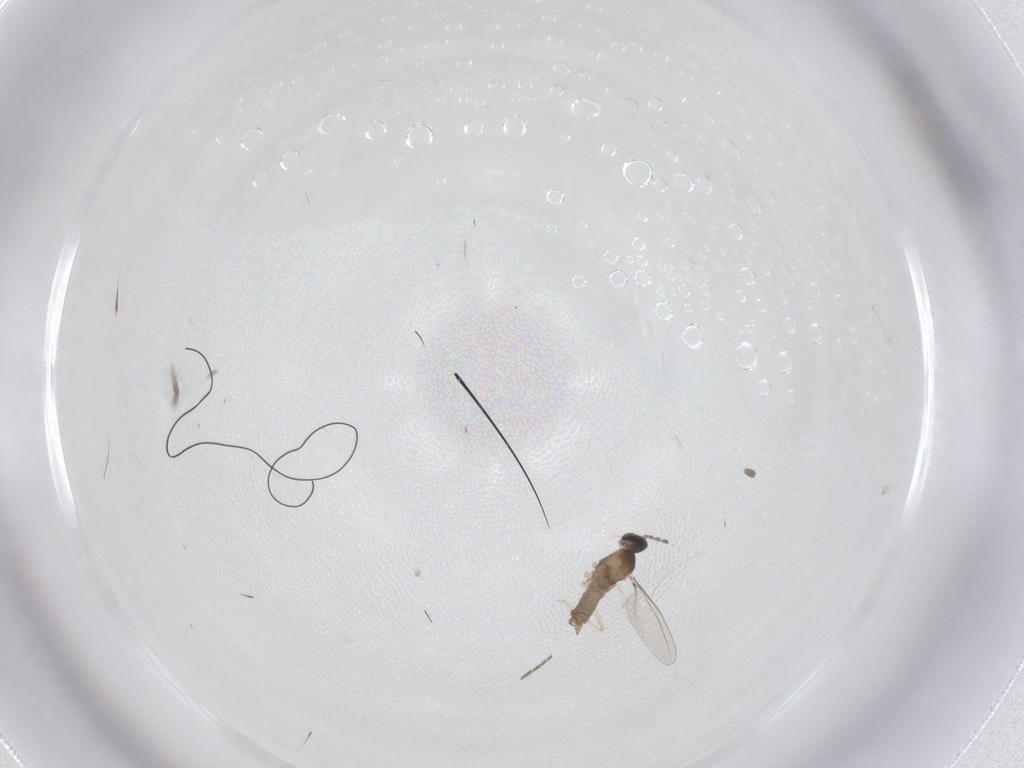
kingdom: Animalia
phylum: Arthropoda
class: Insecta
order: Diptera
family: Cecidomyiidae
